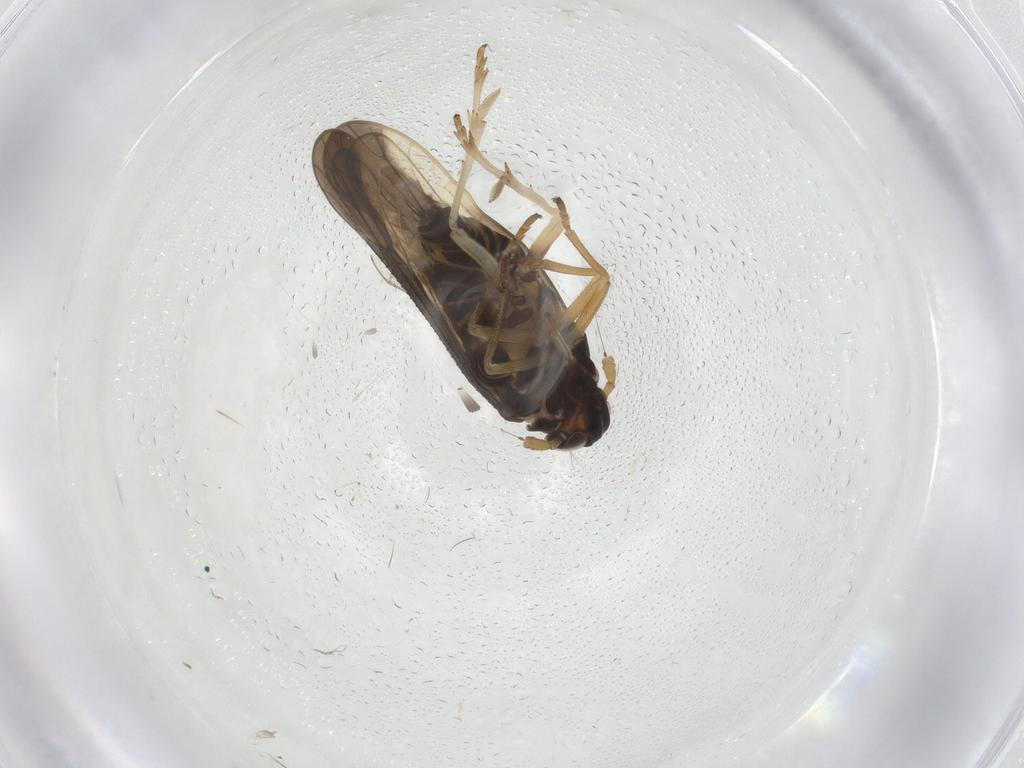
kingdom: Animalia
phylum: Arthropoda
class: Insecta
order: Hemiptera
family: Delphacidae
